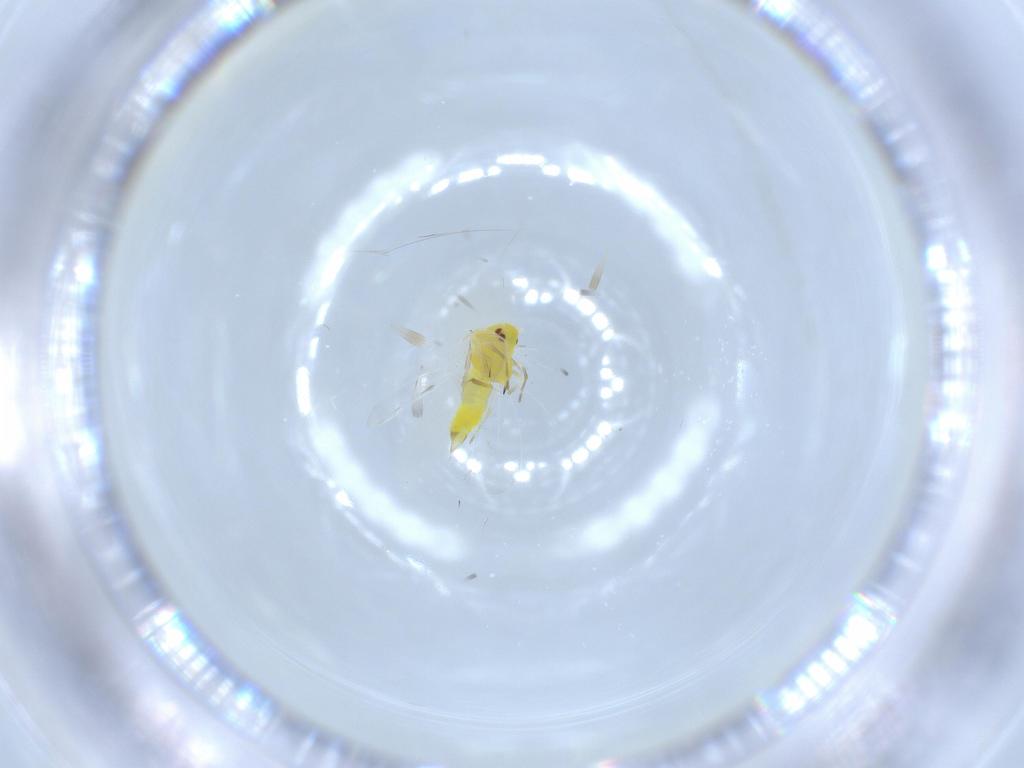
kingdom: Animalia
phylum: Arthropoda
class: Insecta
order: Hemiptera
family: Aleyrodidae
